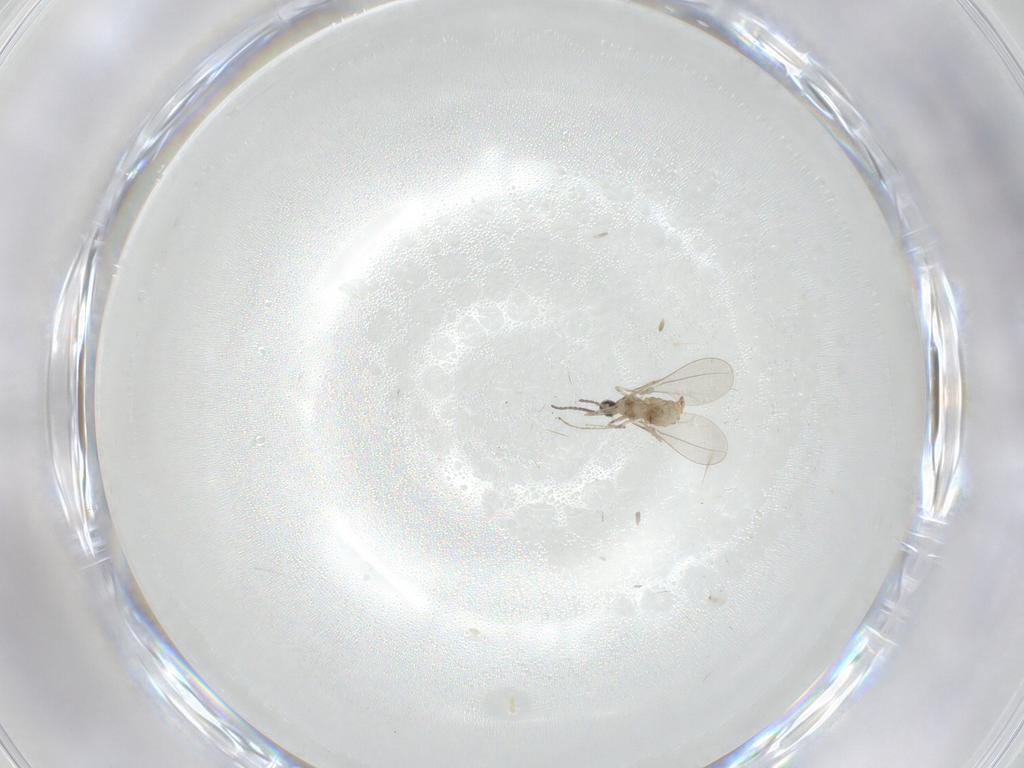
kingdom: Animalia
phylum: Arthropoda
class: Insecta
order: Diptera
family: Cecidomyiidae
